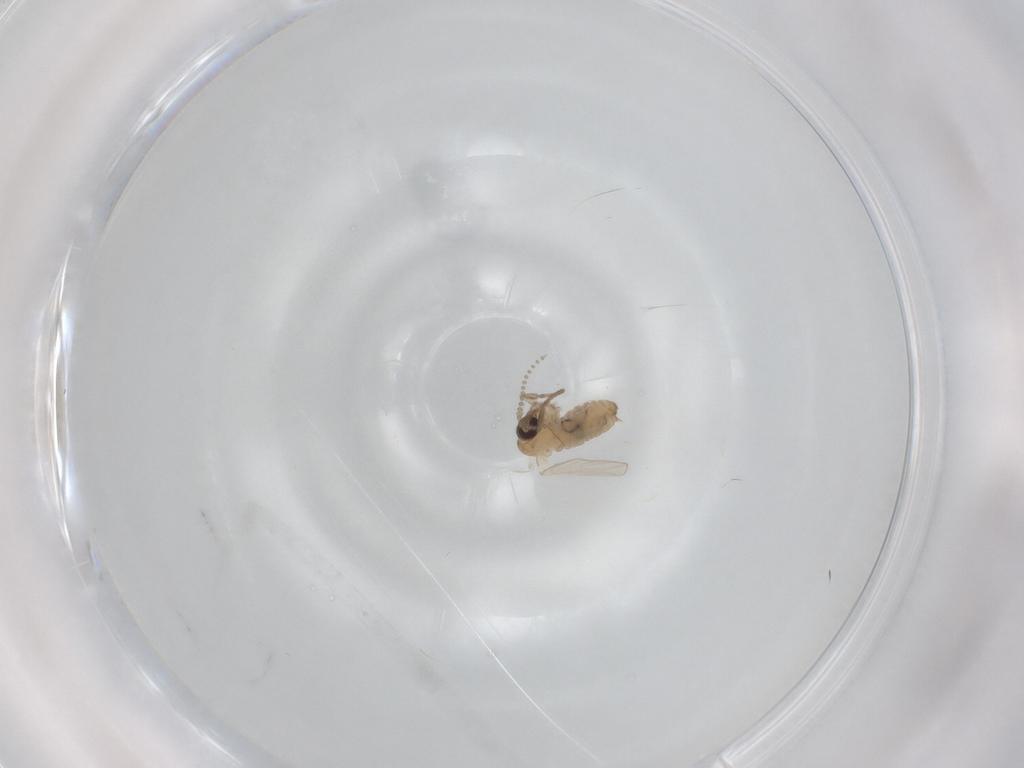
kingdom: Animalia
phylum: Arthropoda
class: Insecta
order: Diptera
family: Psychodidae
